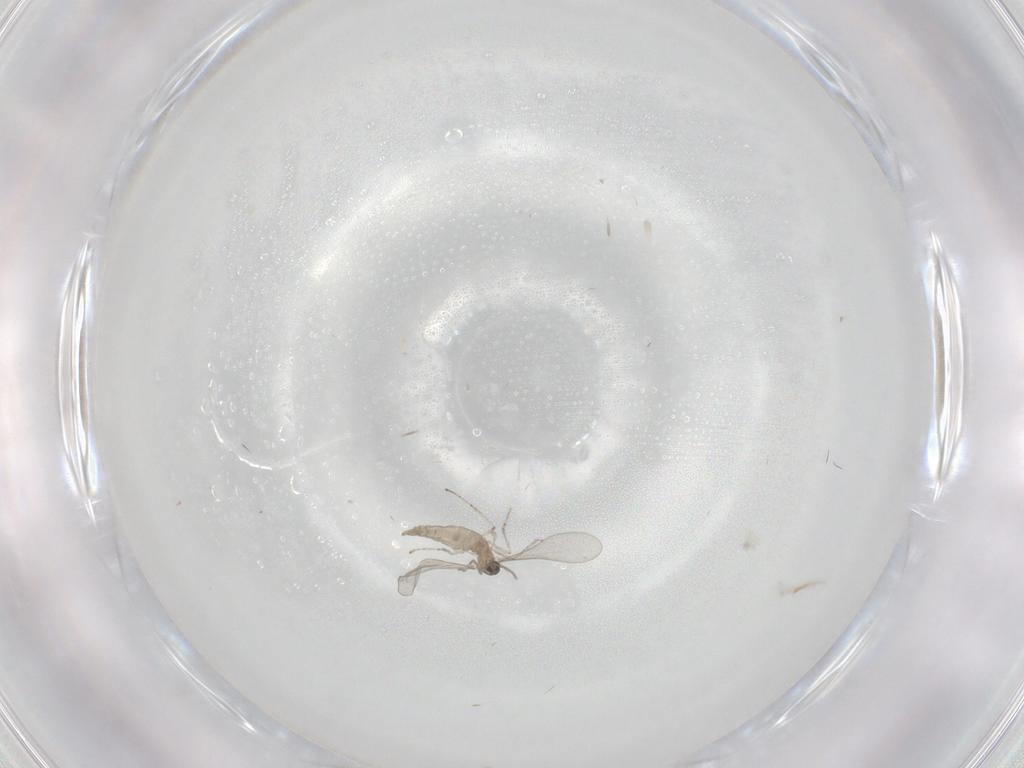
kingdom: Animalia
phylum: Arthropoda
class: Insecta
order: Diptera
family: Cecidomyiidae
